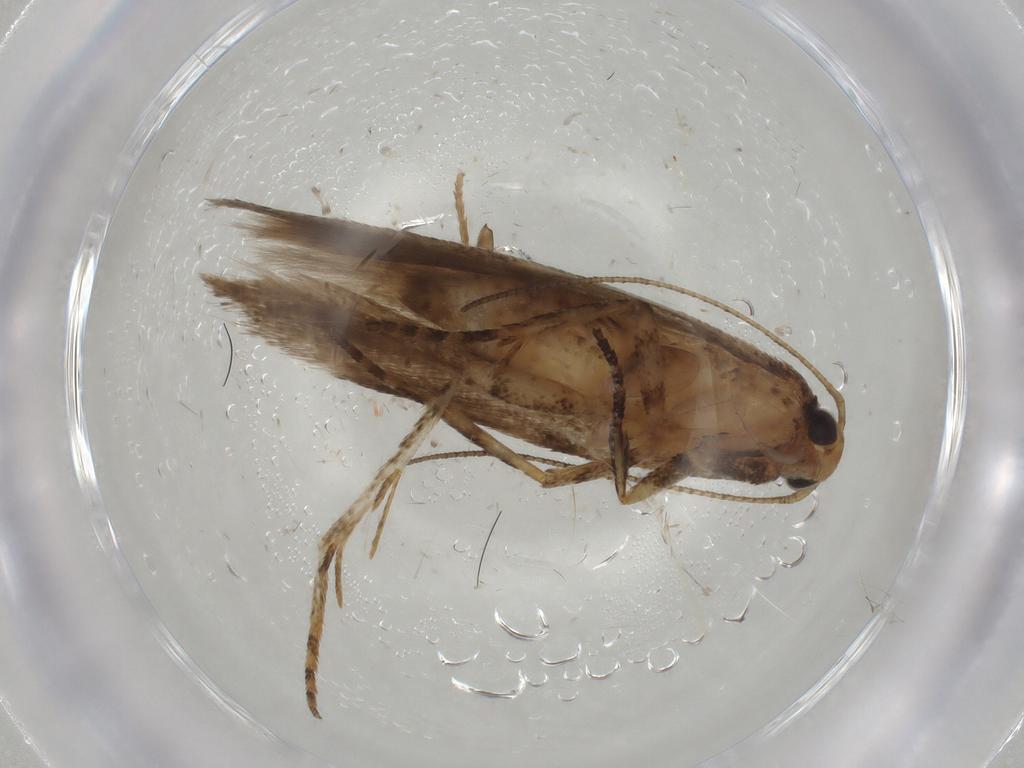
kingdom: Animalia
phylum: Arthropoda
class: Insecta
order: Lepidoptera
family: Gelechiidae
